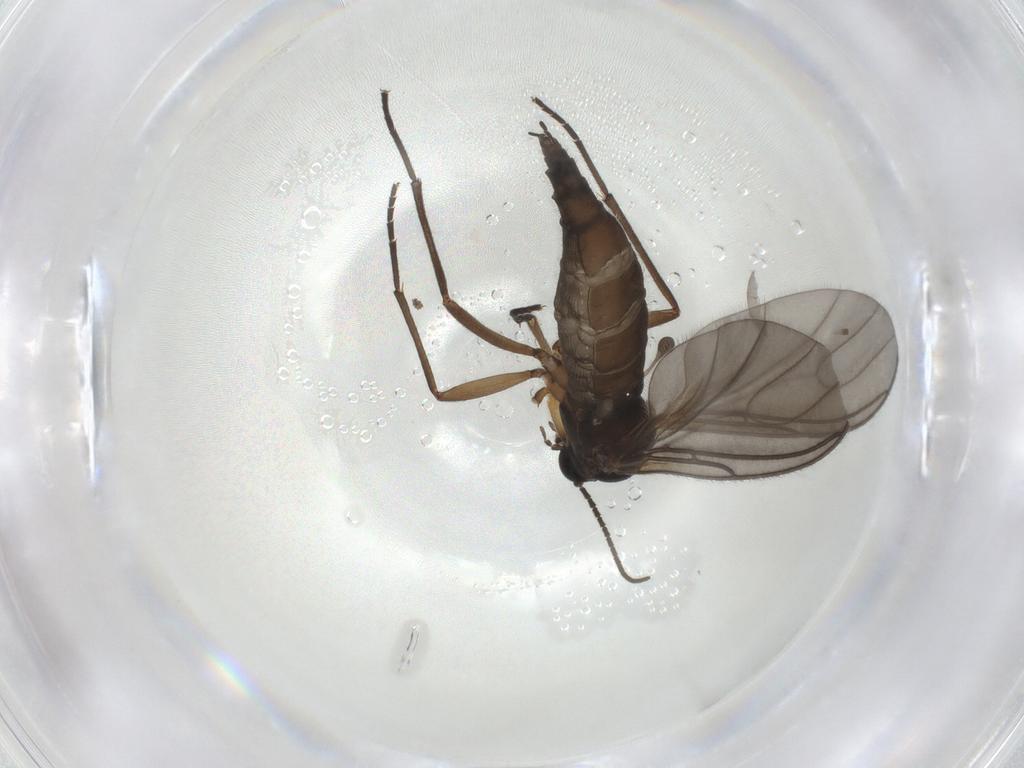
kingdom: Animalia
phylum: Arthropoda
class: Insecta
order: Diptera
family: Sciaridae
